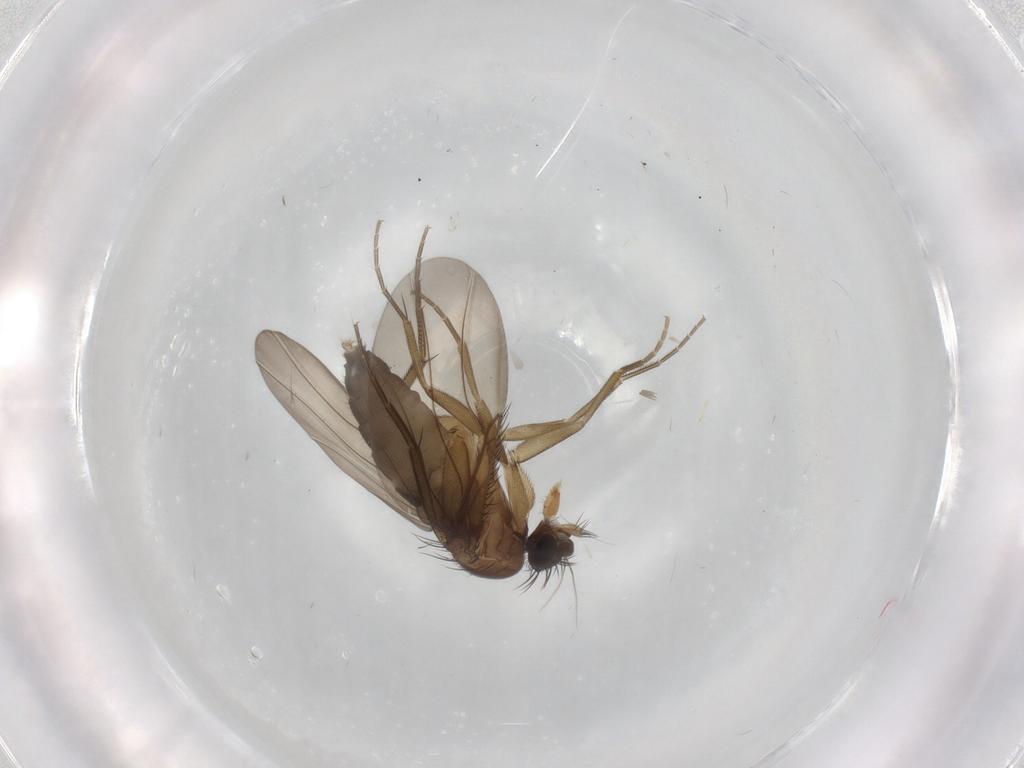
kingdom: Animalia
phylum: Arthropoda
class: Insecta
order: Diptera
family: Phoridae
